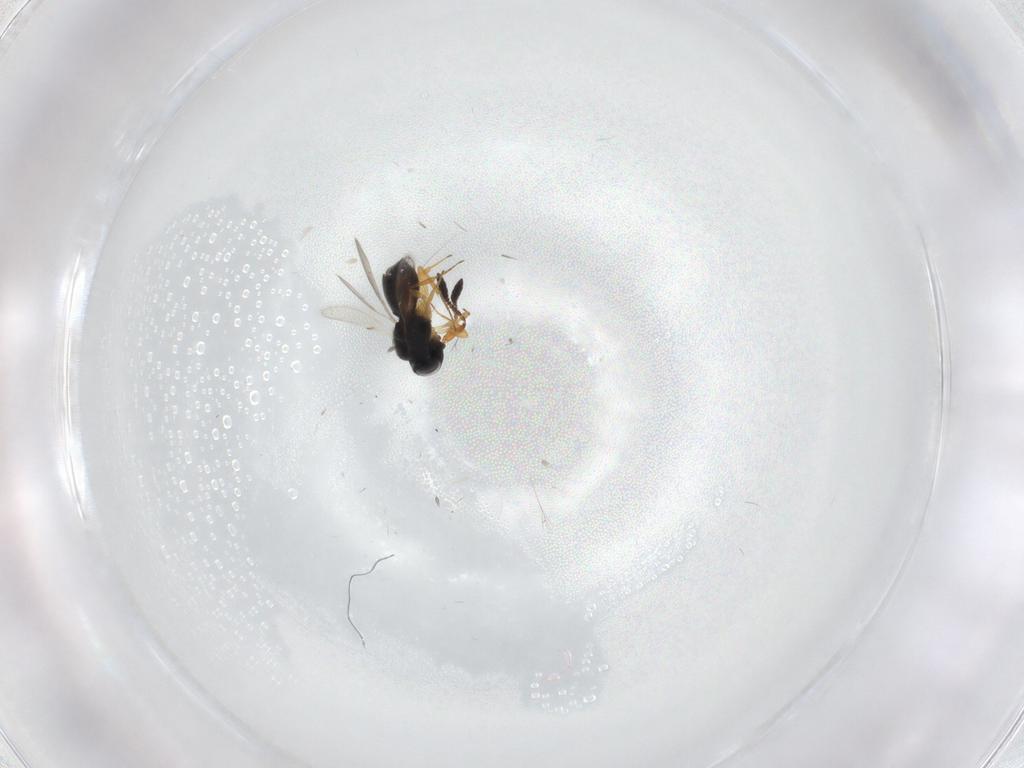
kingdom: Animalia
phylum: Arthropoda
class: Insecta
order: Hymenoptera
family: Scelionidae
